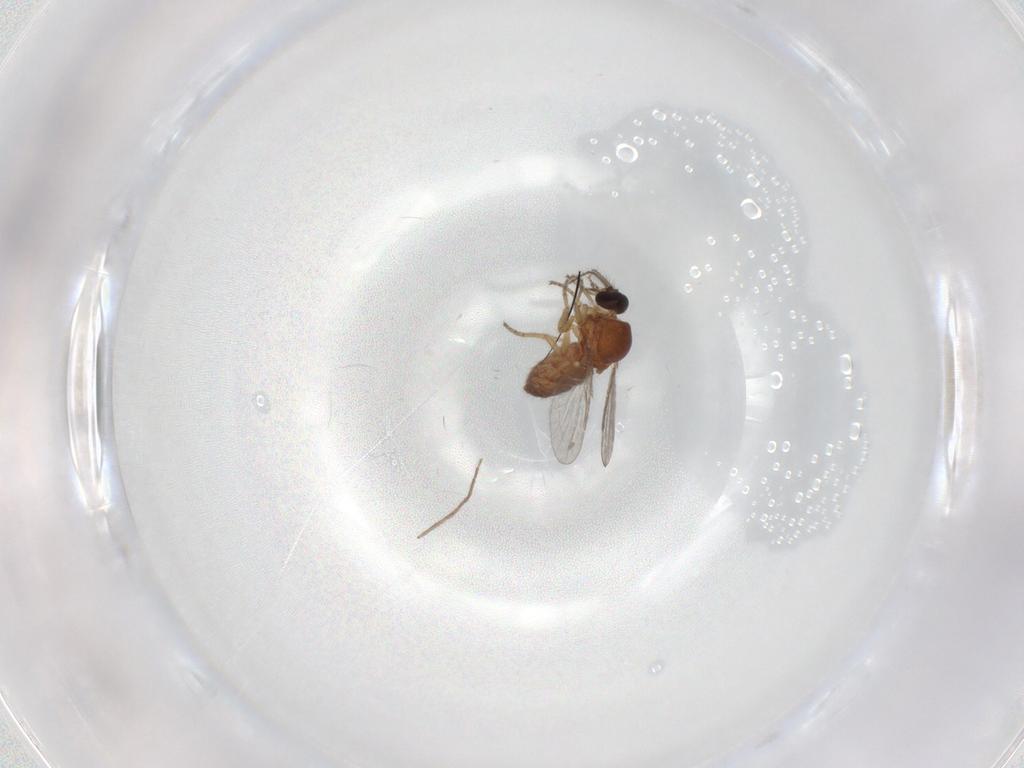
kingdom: Animalia
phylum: Arthropoda
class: Insecta
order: Diptera
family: Ceratopogonidae
